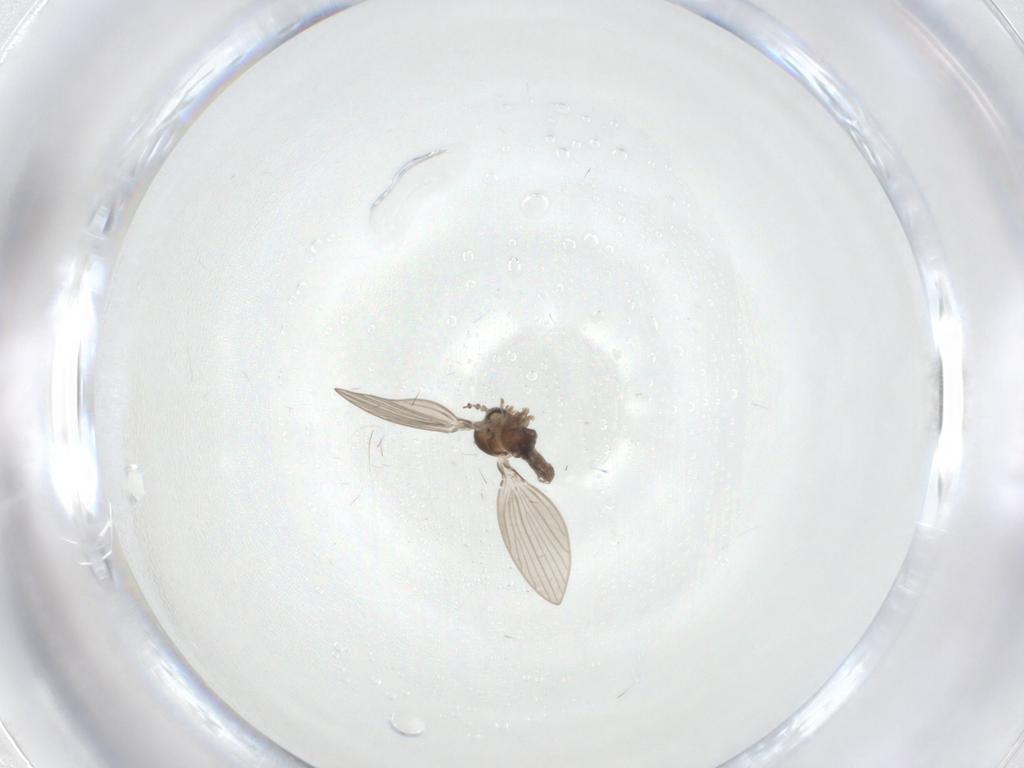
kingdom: Animalia
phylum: Arthropoda
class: Insecta
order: Diptera
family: Psychodidae
